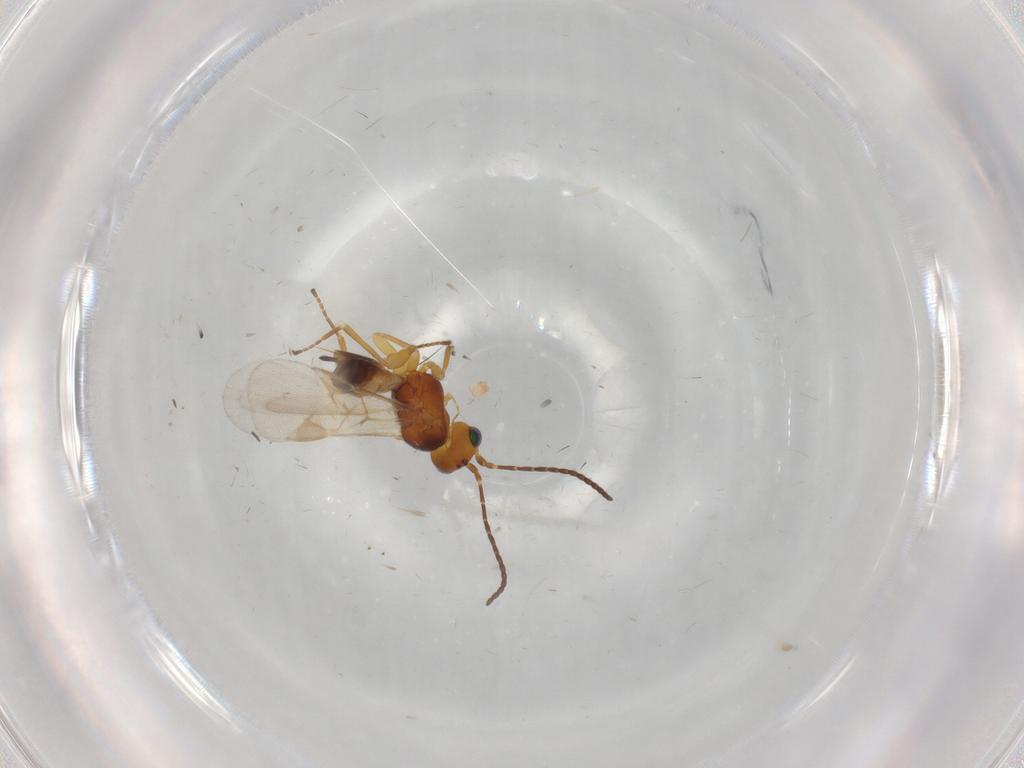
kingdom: Animalia
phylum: Arthropoda
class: Insecta
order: Hymenoptera
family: Braconidae
